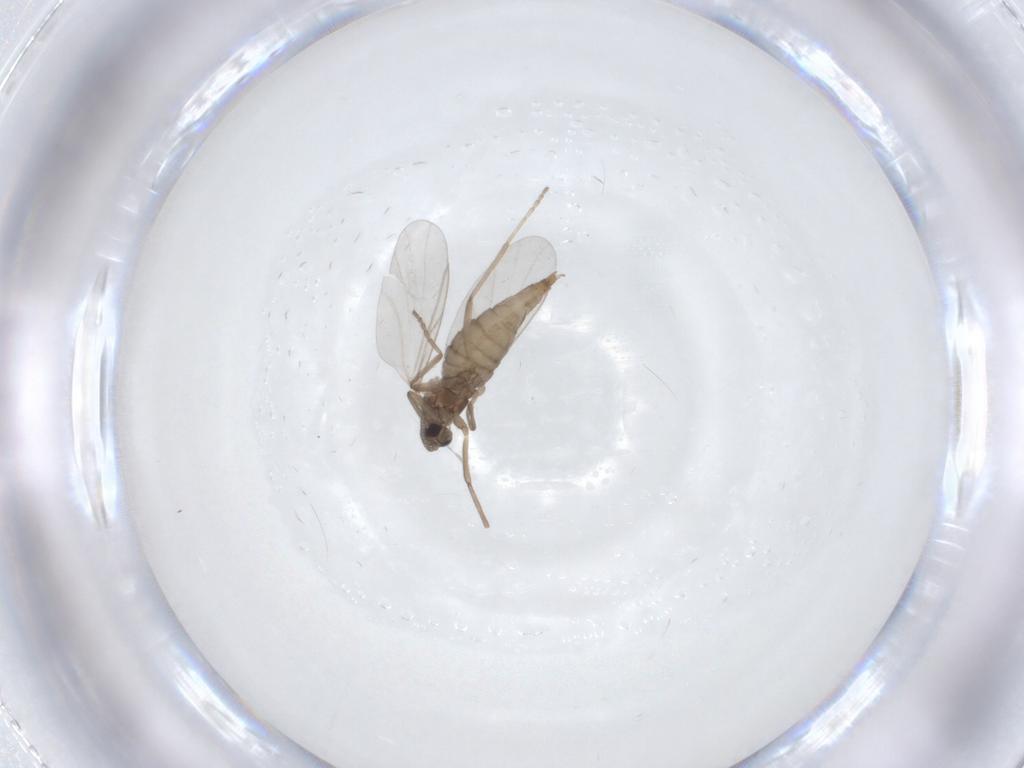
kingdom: Animalia
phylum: Arthropoda
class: Insecta
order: Diptera
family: Cecidomyiidae
